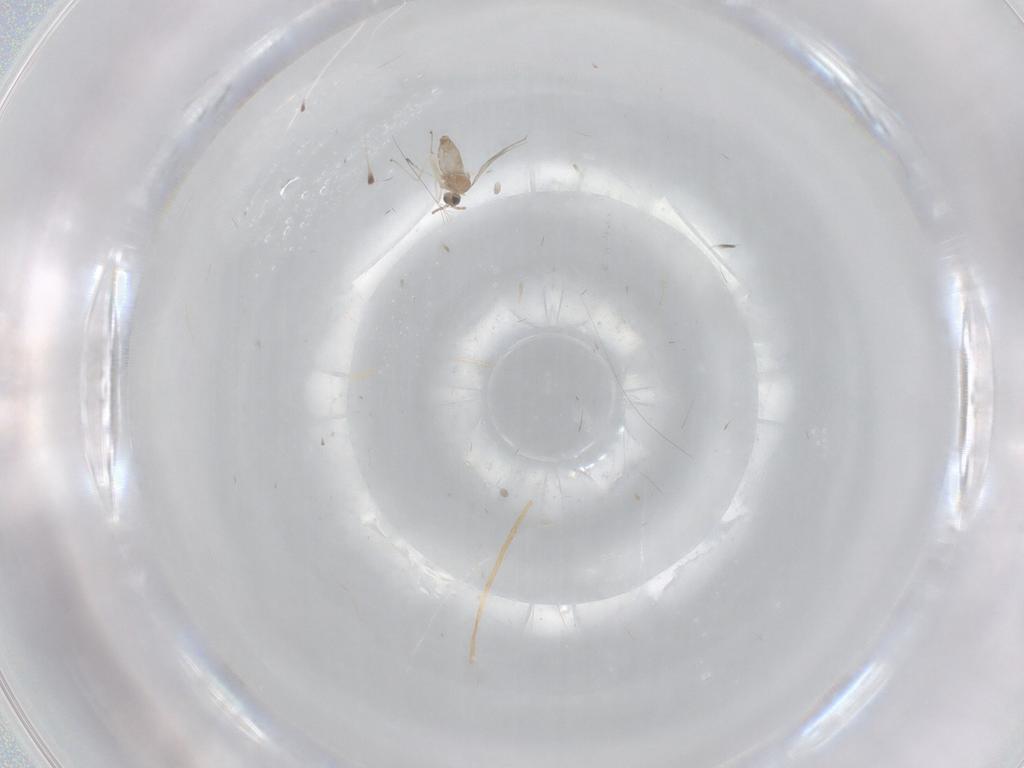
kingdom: Animalia
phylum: Arthropoda
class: Insecta
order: Diptera
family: Cecidomyiidae
